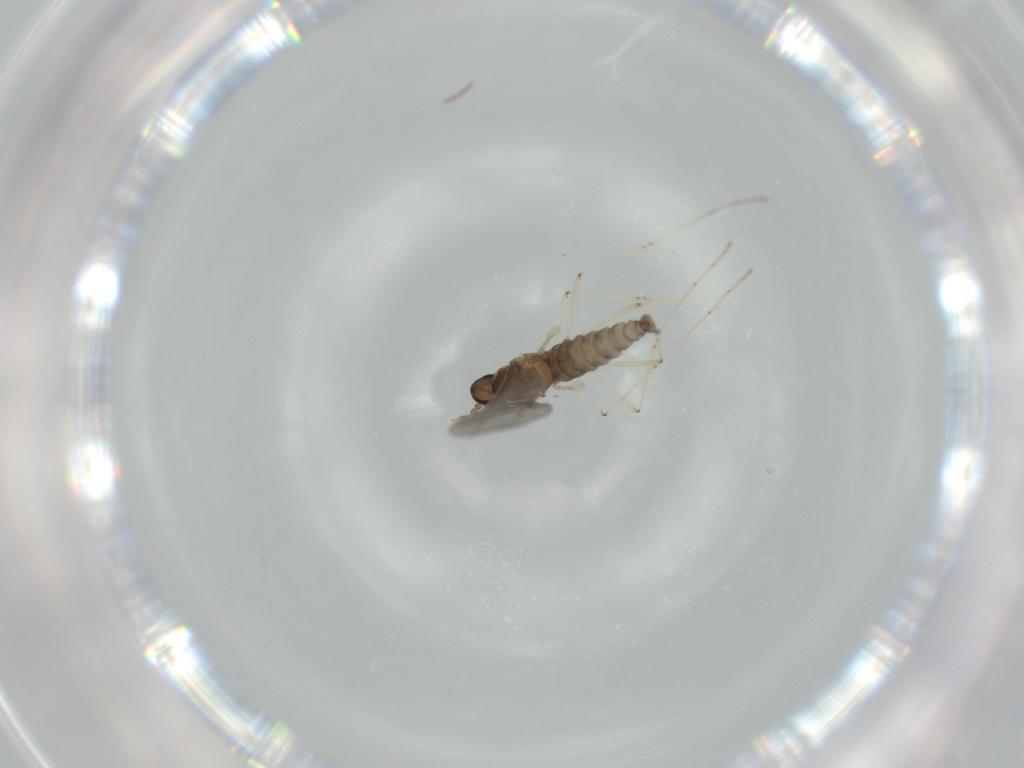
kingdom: Animalia
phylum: Arthropoda
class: Insecta
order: Diptera
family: Cecidomyiidae
